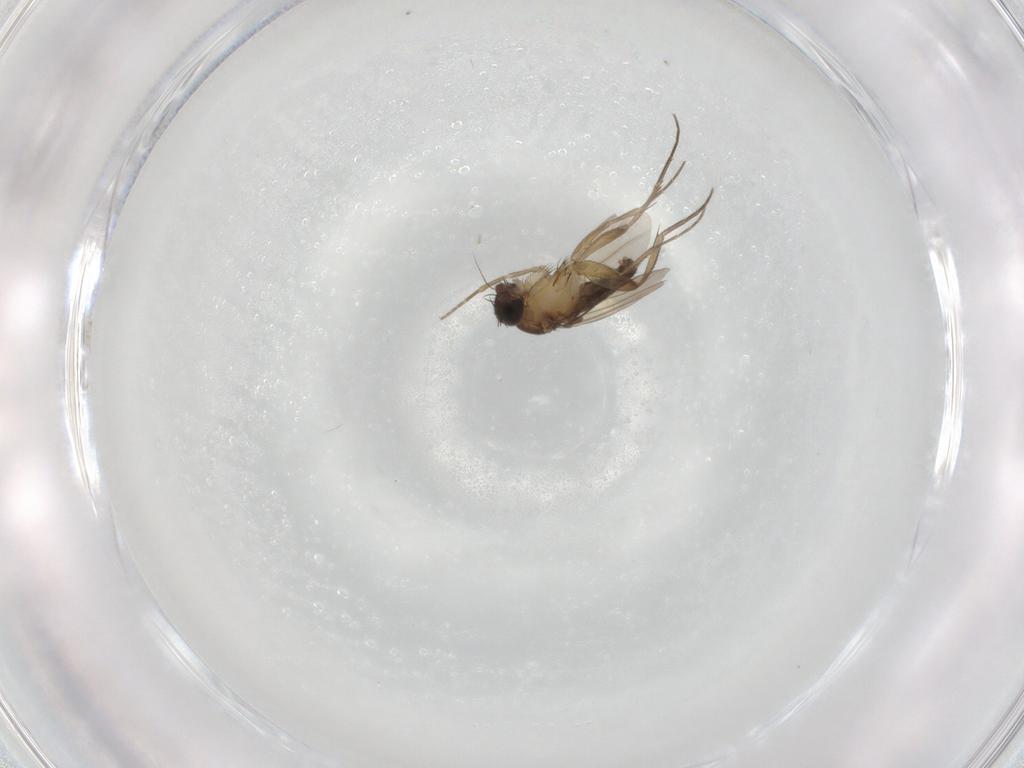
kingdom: Animalia
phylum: Arthropoda
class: Insecta
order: Diptera
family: Phoridae
